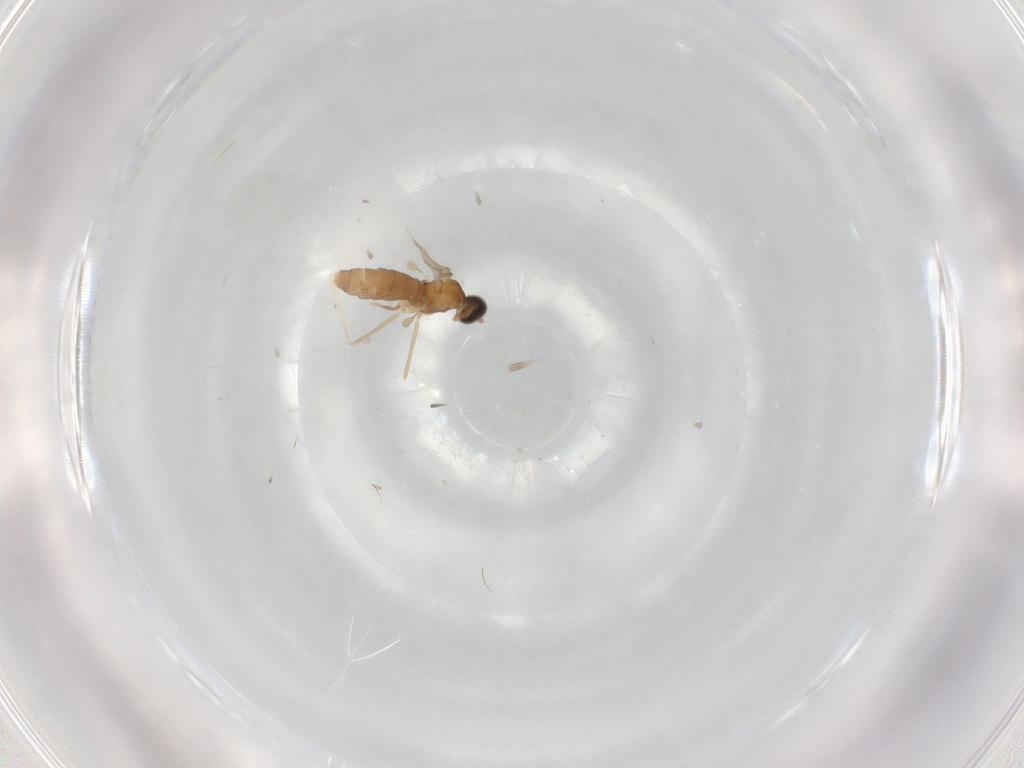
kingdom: Animalia
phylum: Arthropoda
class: Insecta
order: Diptera
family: Cecidomyiidae
